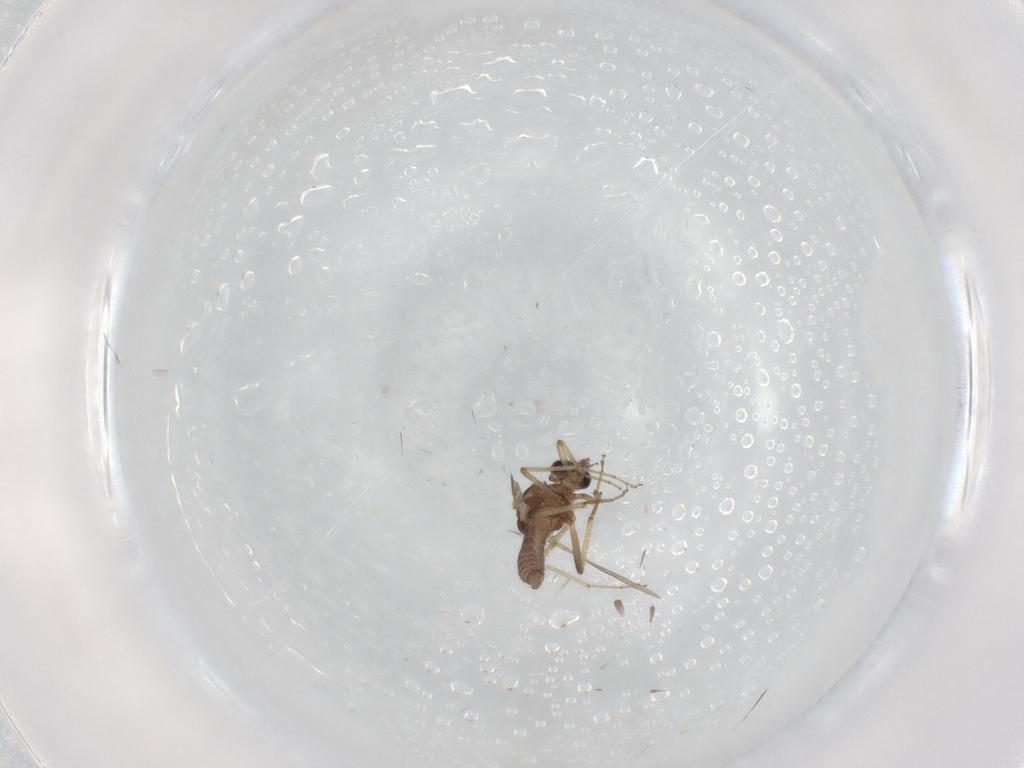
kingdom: Animalia
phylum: Arthropoda
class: Insecta
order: Diptera
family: Ceratopogonidae
